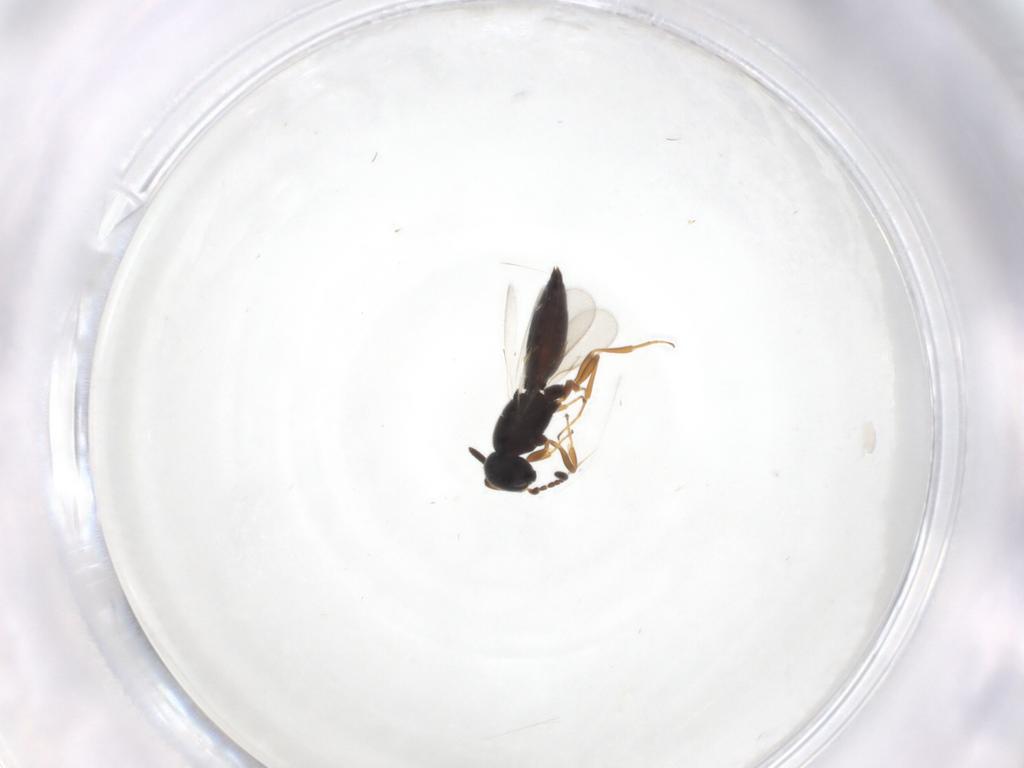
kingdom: Animalia
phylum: Arthropoda
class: Insecta
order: Hymenoptera
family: Scelionidae
